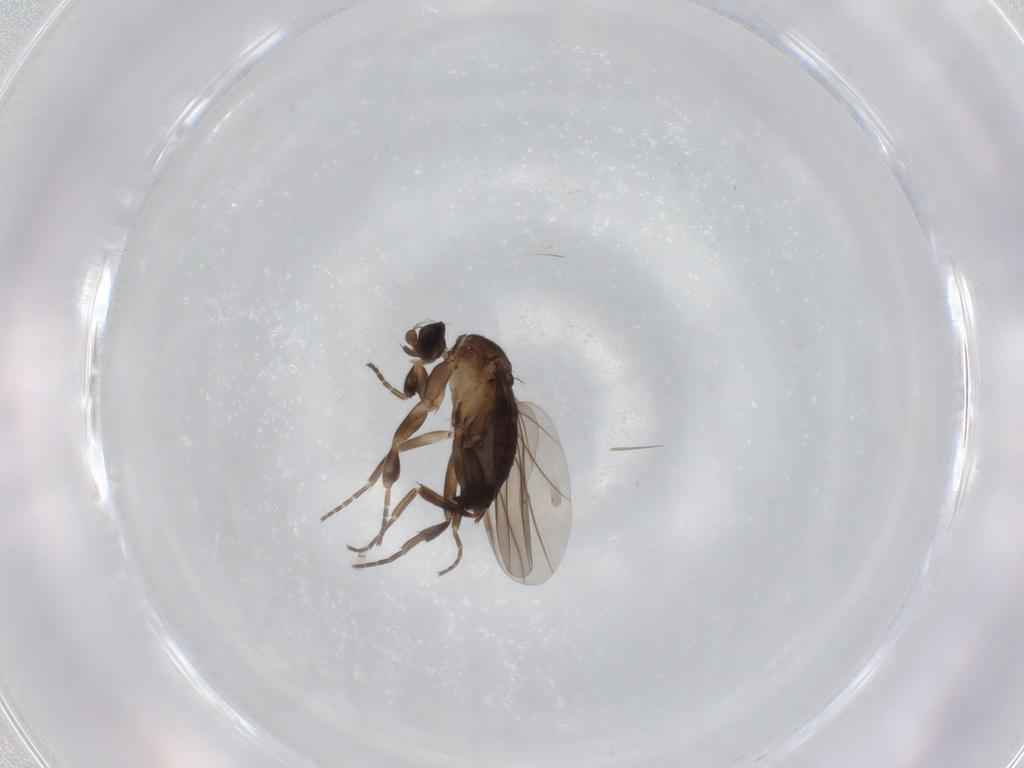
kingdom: Animalia
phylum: Arthropoda
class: Insecta
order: Diptera
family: Phoridae
